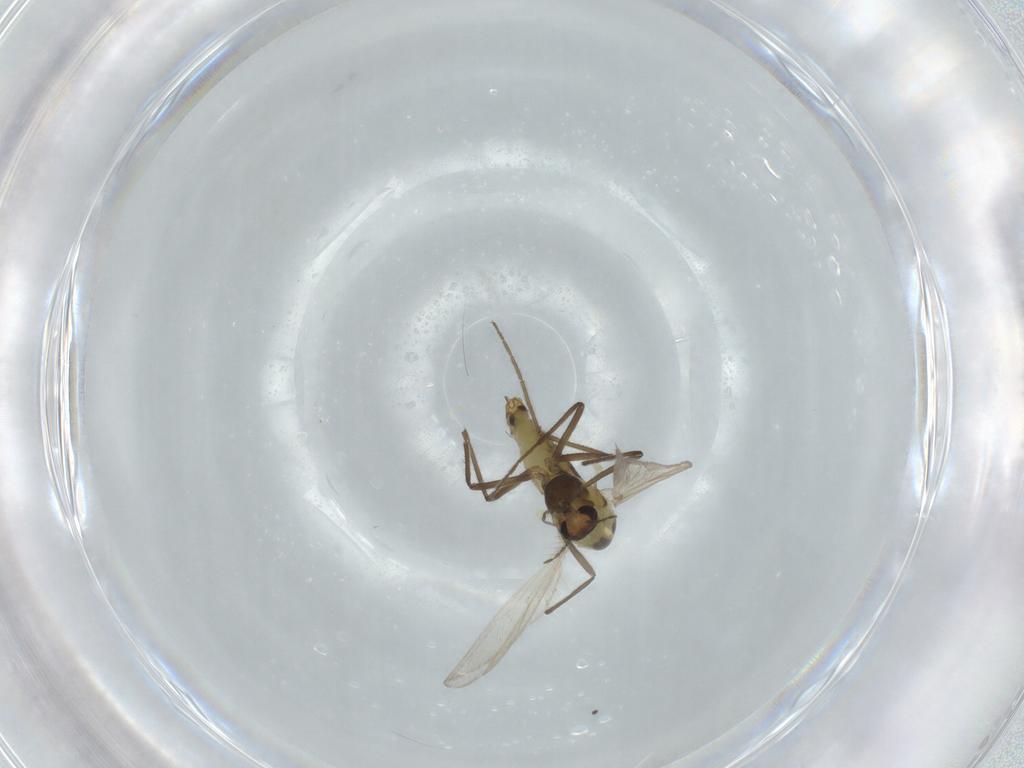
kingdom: Animalia
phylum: Arthropoda
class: Insecta
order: Diptera
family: Chironomidae
